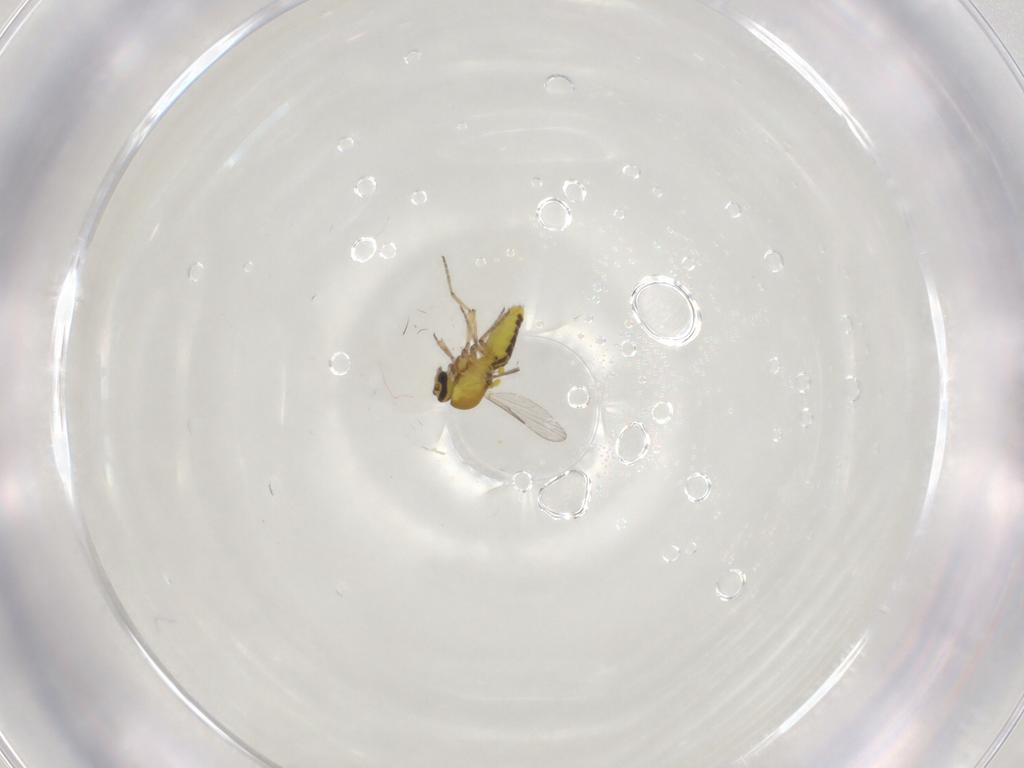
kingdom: Animalia
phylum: Arthropoda
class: Insecta
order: Diptera
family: Ceratopogonidae
